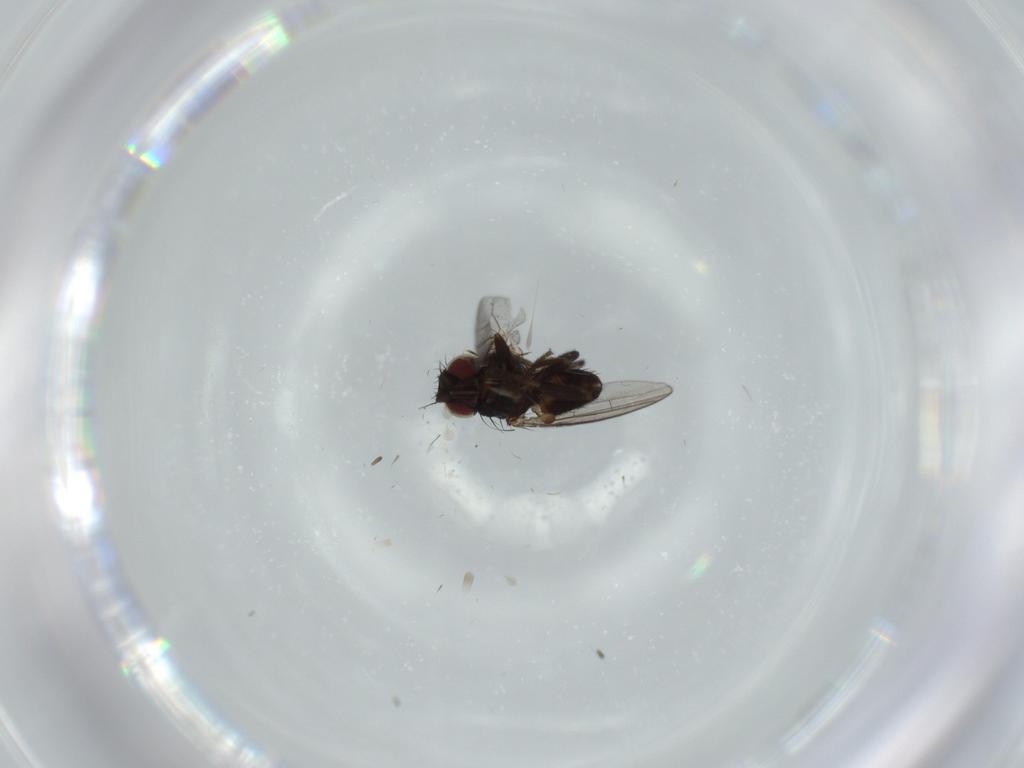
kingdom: Animalia
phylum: Arthropoda
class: Insecta
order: Diptera
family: Milichiidae
